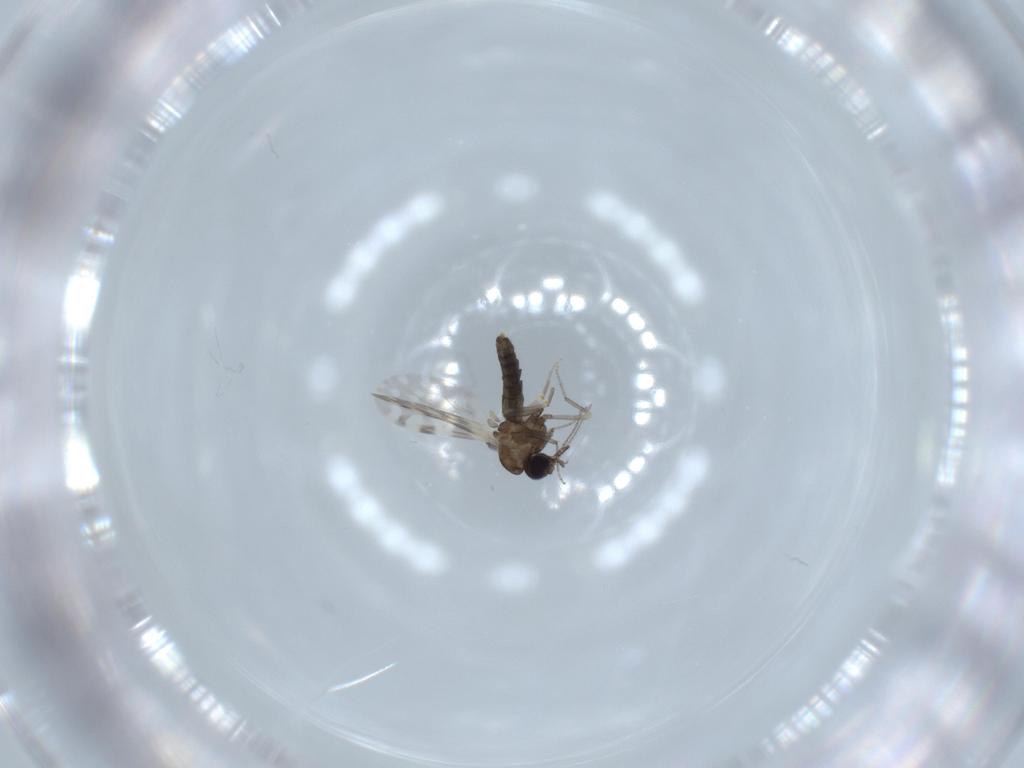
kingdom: Animalia
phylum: Arthropoda
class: Insecta
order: Diptera
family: Ceratopogonidae
